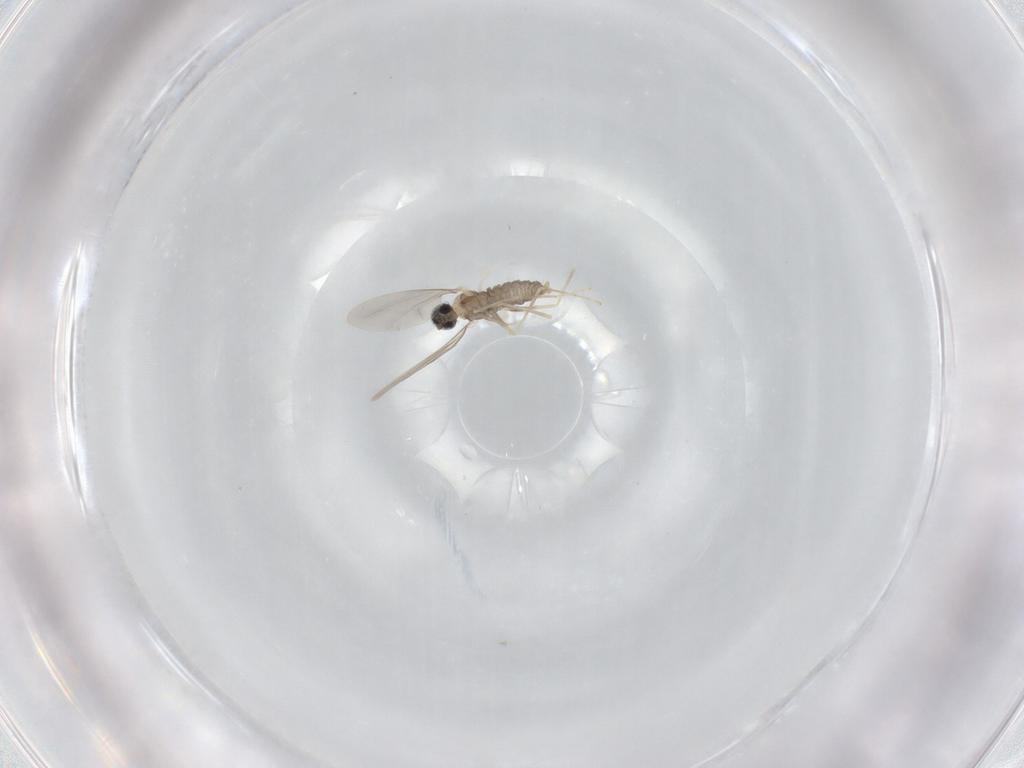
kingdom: Animalia
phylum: Arthropoda
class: Insecta
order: Diptera
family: Cecidomyiidae
